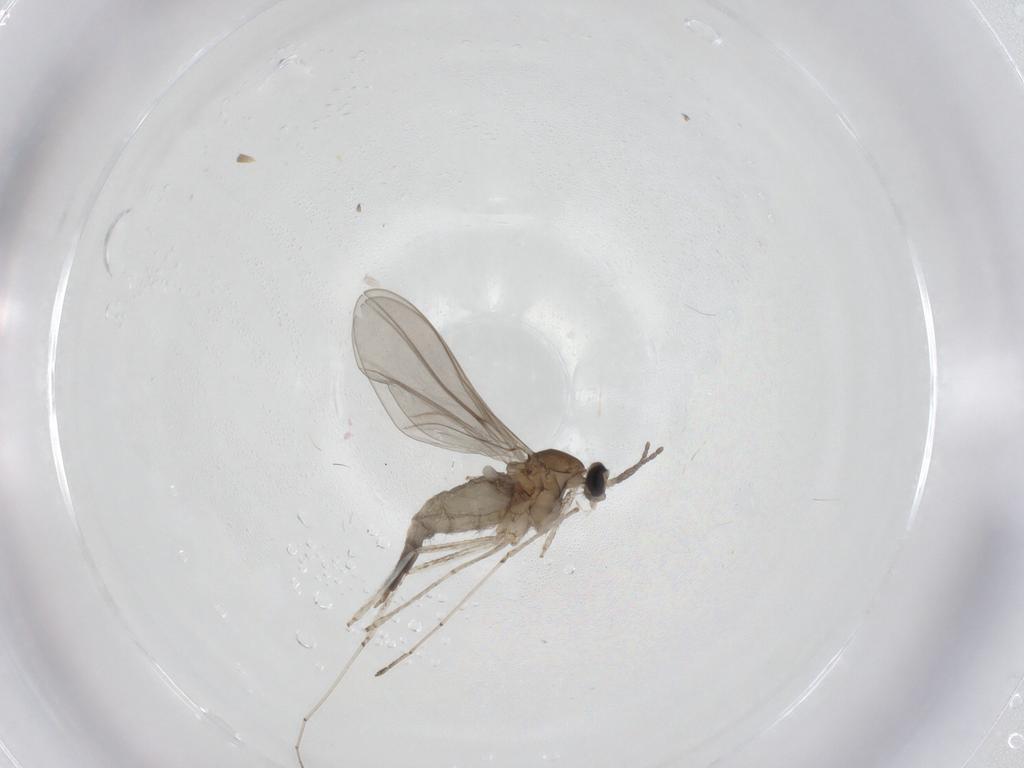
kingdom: Animalia
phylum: Arthropoda
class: Insecta
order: Diptera
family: Cecidomyiidae
